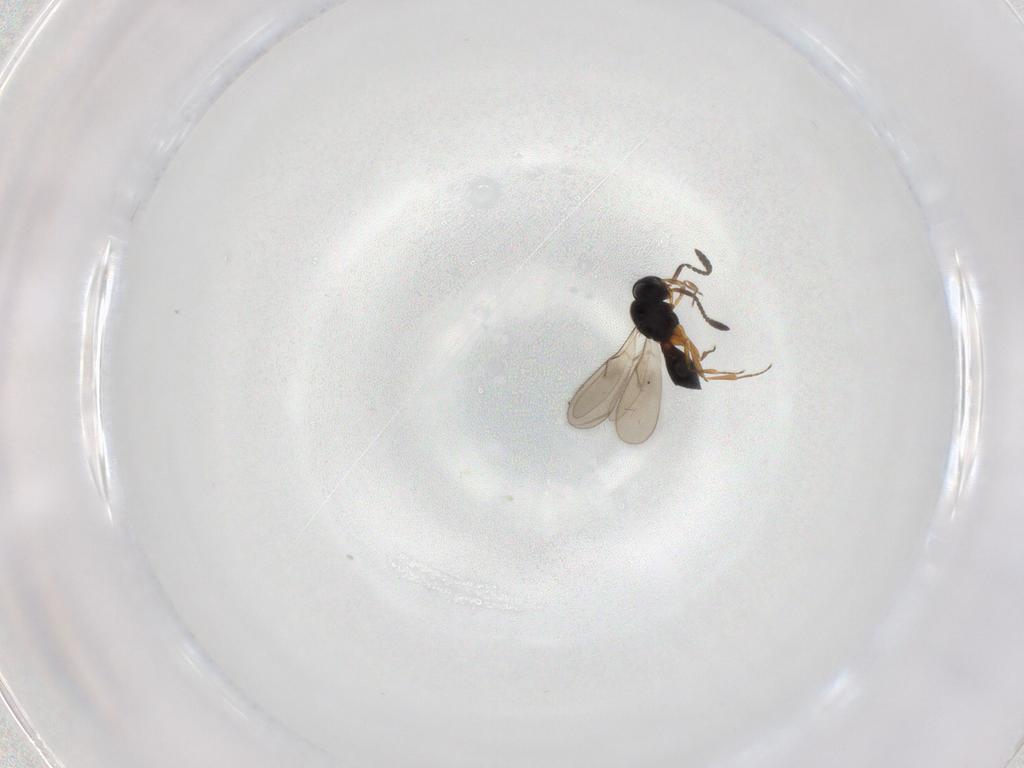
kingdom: Animalia
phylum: Arthropoda
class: Insecta
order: Hymenoptera
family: Scelionidae
